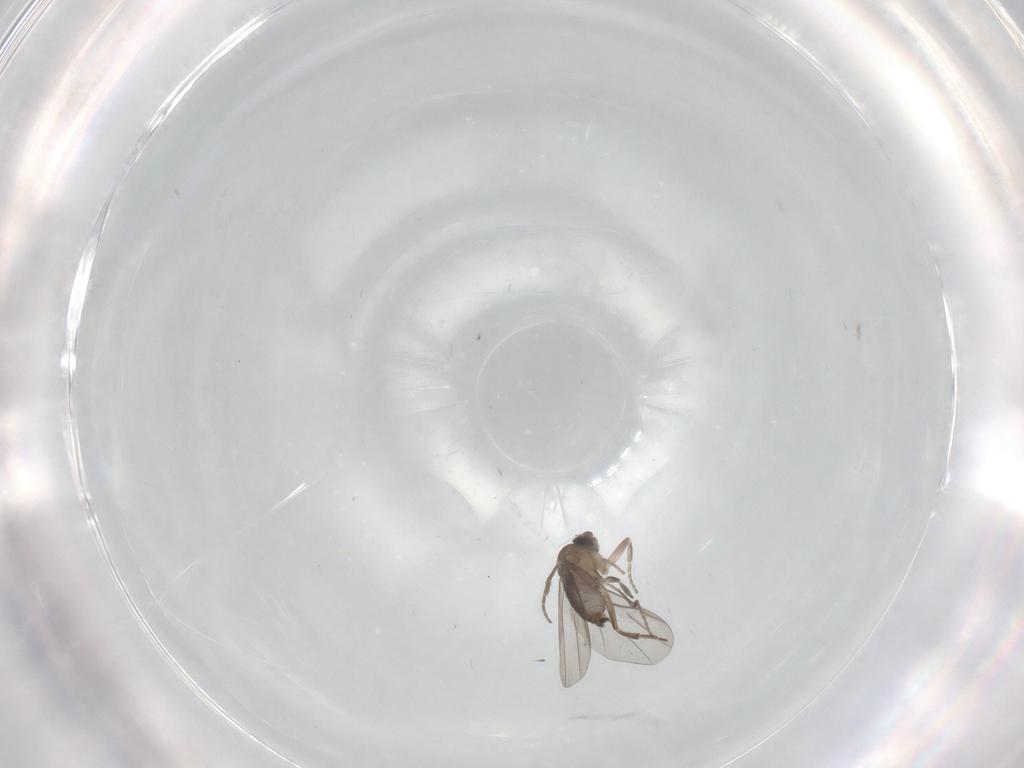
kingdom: Animalia
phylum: Arthropoda
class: Insecta
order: Diptera
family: Phoridae
